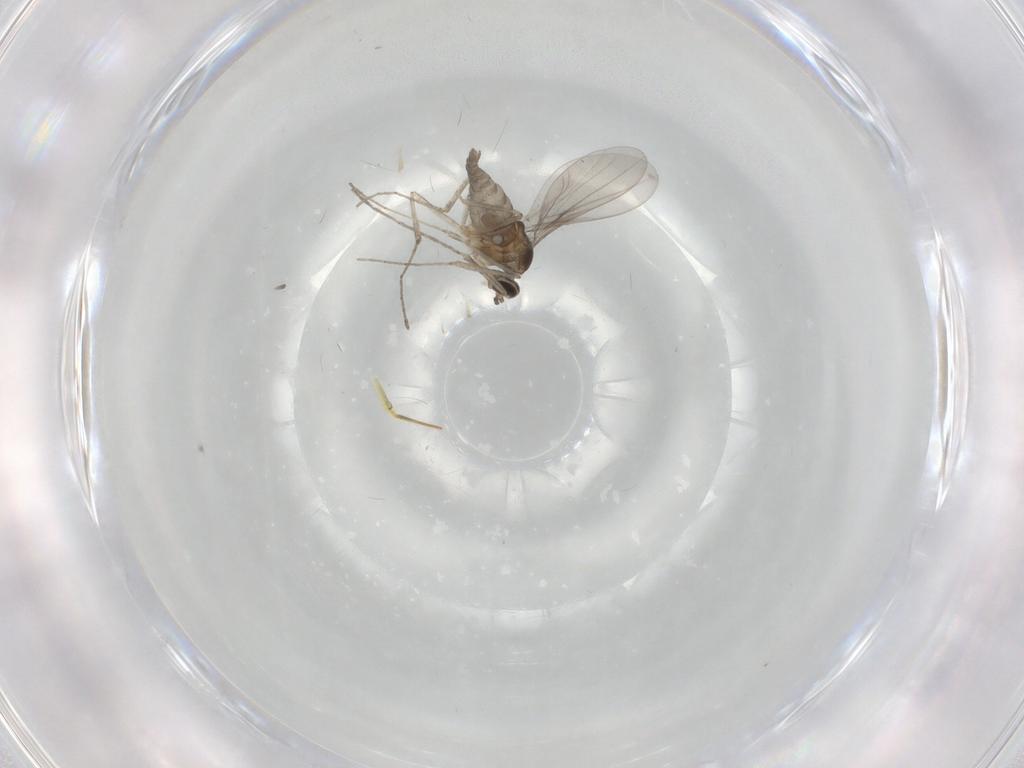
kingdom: Animalia
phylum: Arthropoda
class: Insecta
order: Diptera
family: Cecidomyiidae
